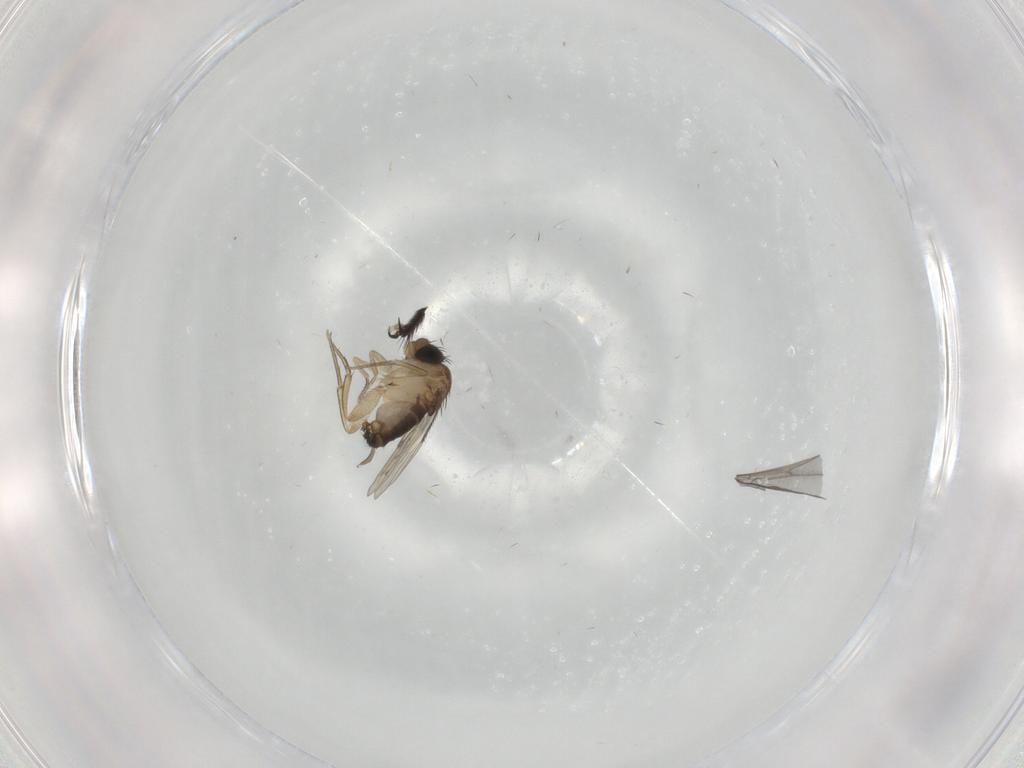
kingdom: Animalia
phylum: Arthropoda
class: Insecta
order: Diptera
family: Cecidomyiidae
